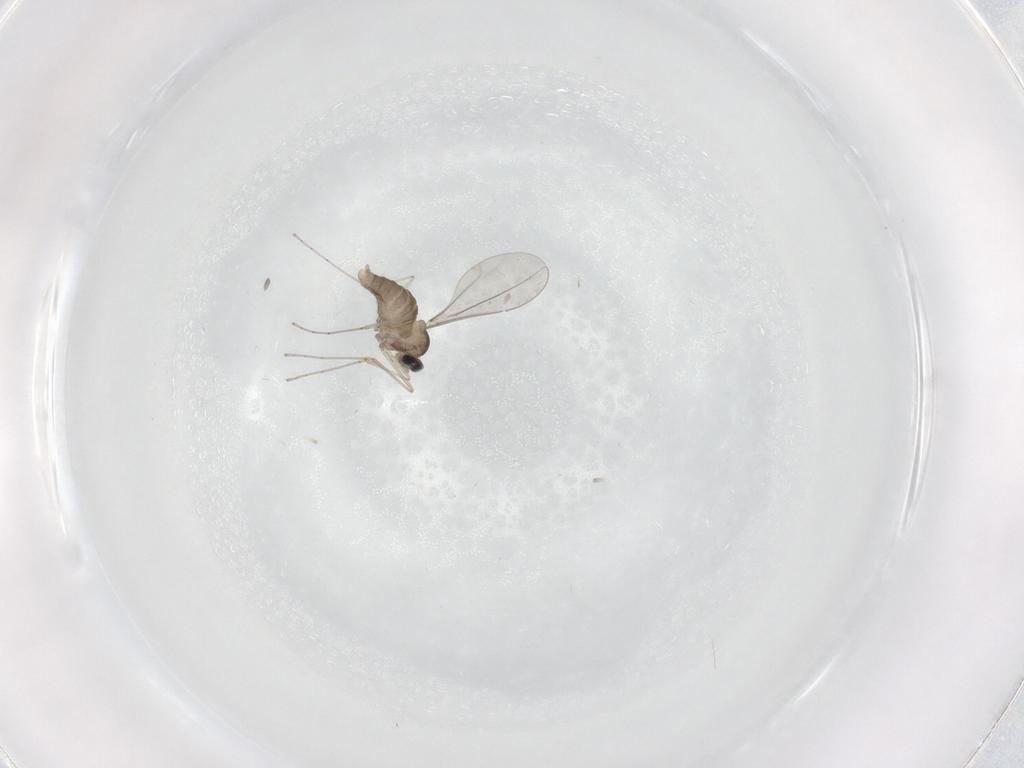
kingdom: Animalia
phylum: Arthropoda
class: Insecta
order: Diptera
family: Cecidomyiidae
